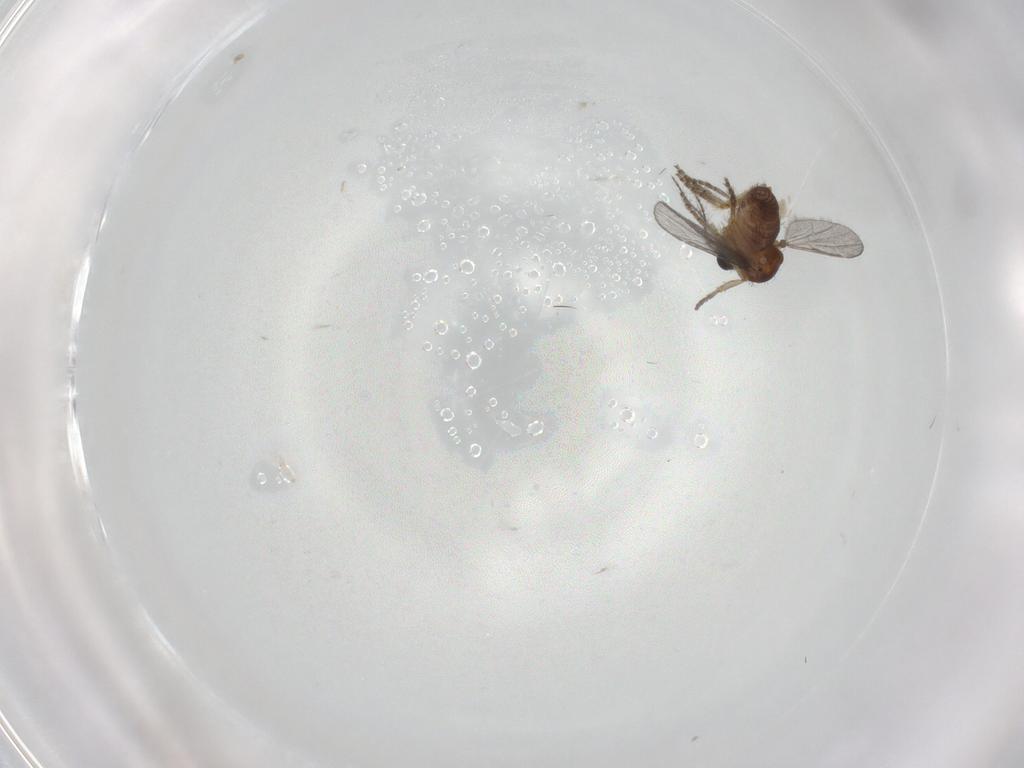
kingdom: Animalia
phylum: Arthropoda
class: Insecta
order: Diptera
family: Ceratopogonidae
